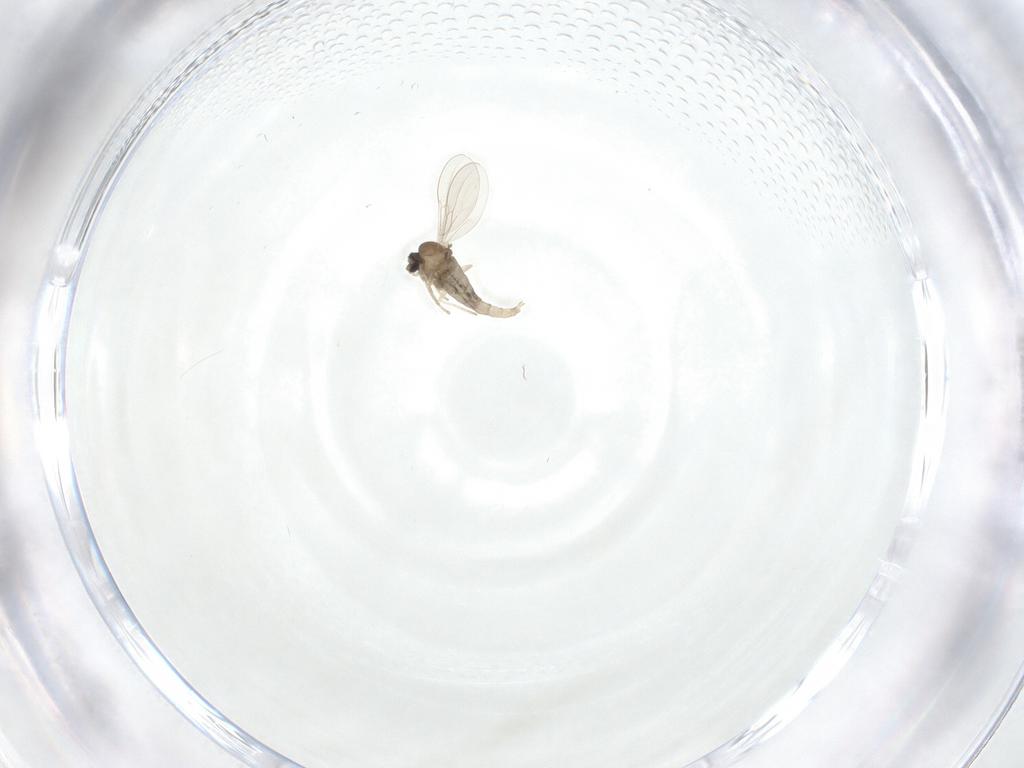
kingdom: Animalia
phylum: Arthropoda
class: Insecta
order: Diptera
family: Cecidomyiidae
